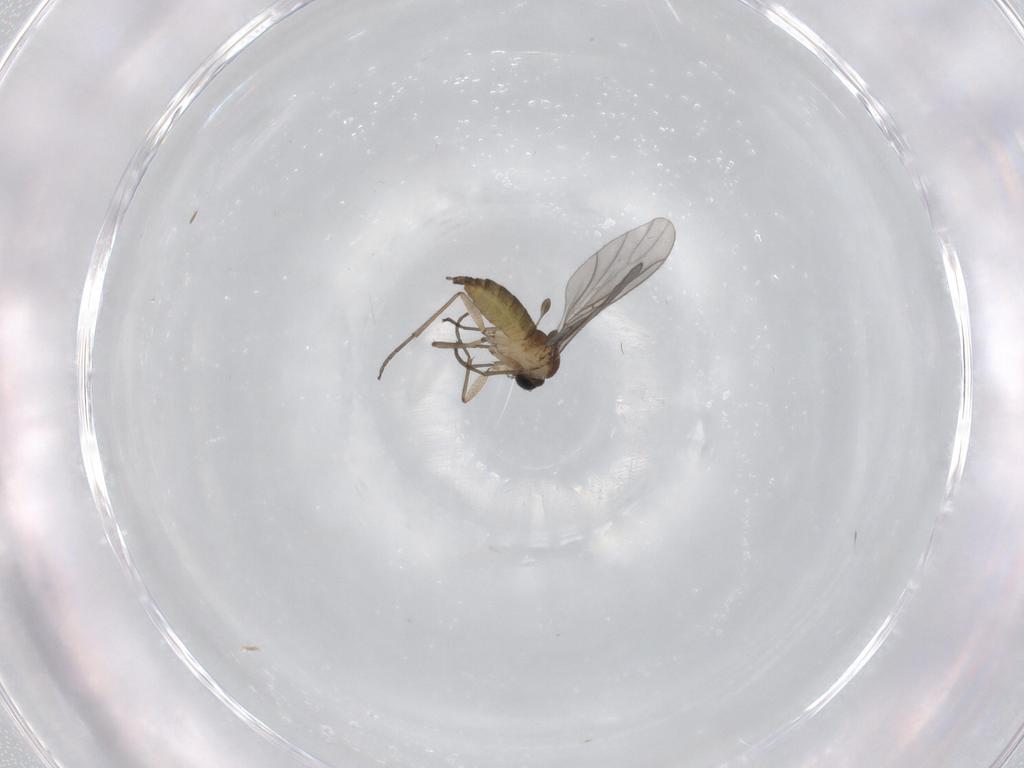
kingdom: Animalia
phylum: Arthropoda
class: Insecta
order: Diptera
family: Sciaridae
